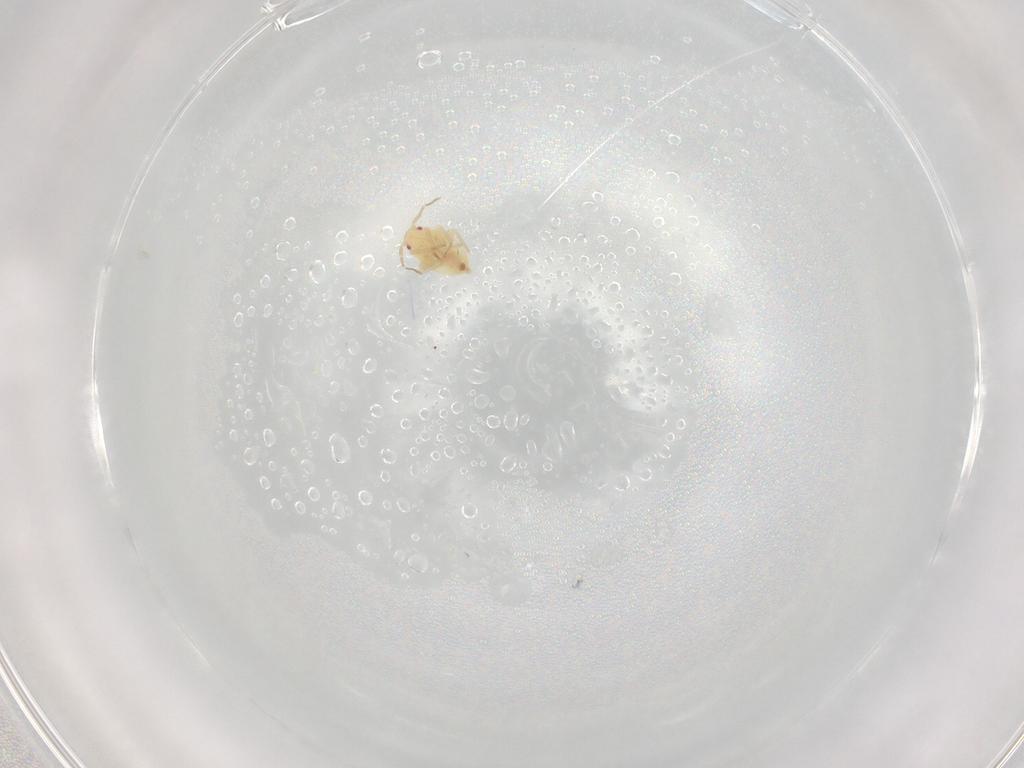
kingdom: Animalia
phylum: Arthropoda
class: Insecta
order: Hemiptera
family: Miridae
